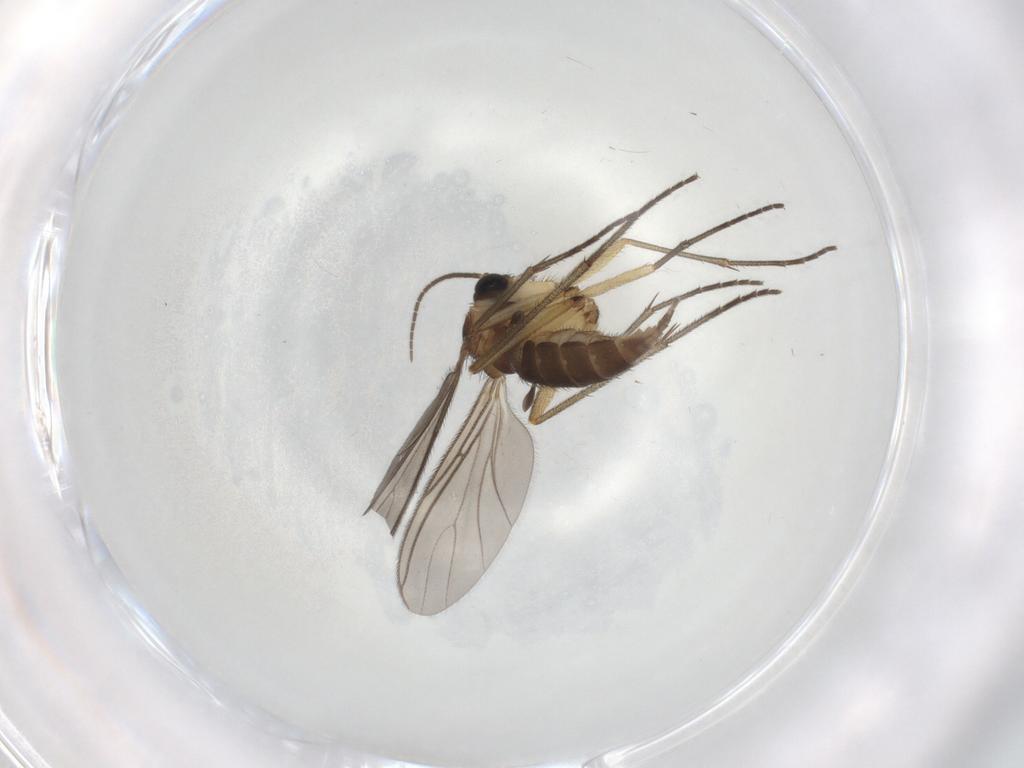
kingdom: Animalia
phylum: Arthropoda
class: Insecta
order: Diptera
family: Sciaridae
